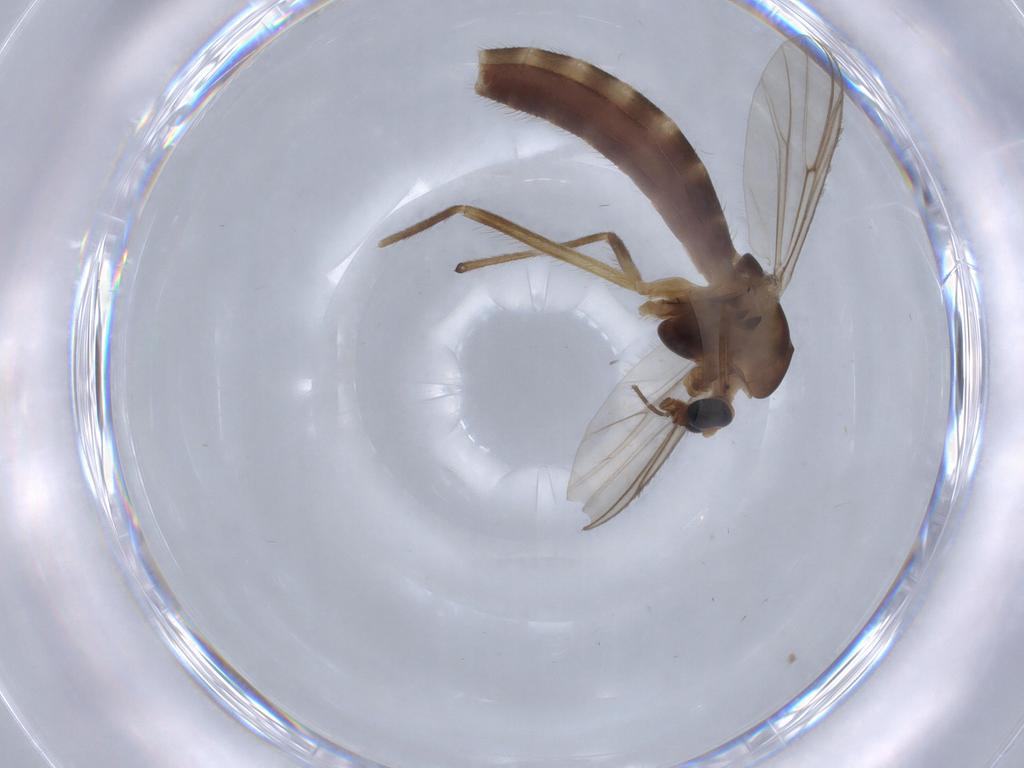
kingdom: Animalia
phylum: Arthropoda
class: Insecta
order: Diptera
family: Chironomidae
